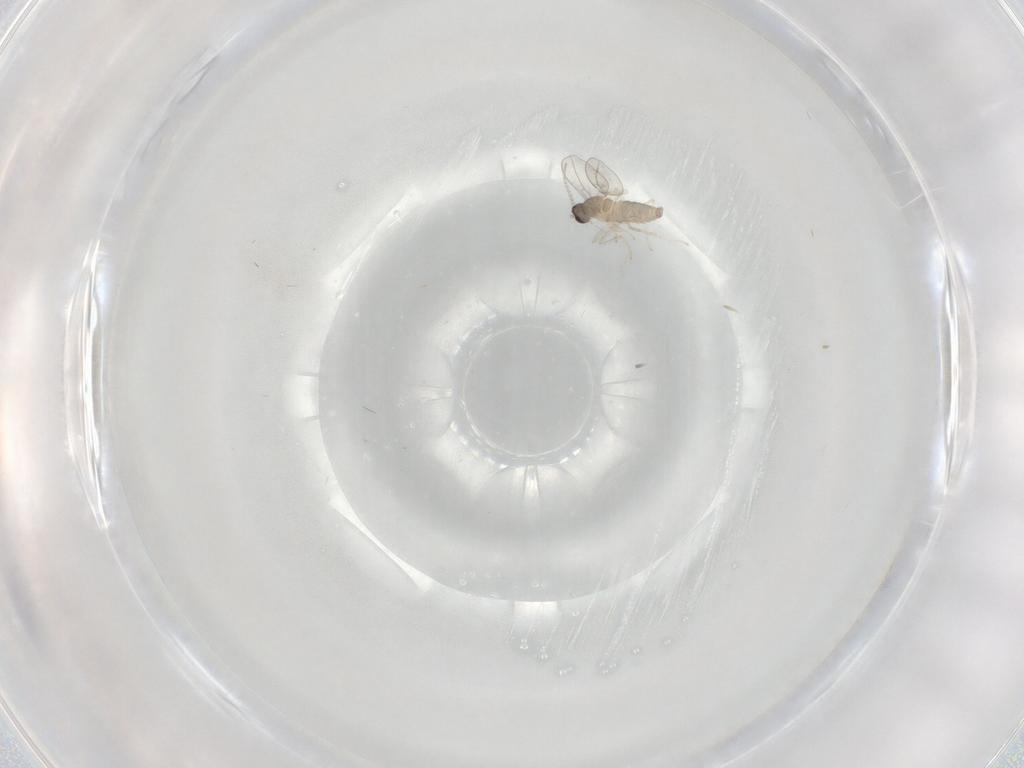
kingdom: Animalia
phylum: Arthropoda
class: Insecta
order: Diptera
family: Cecidomyiidae
